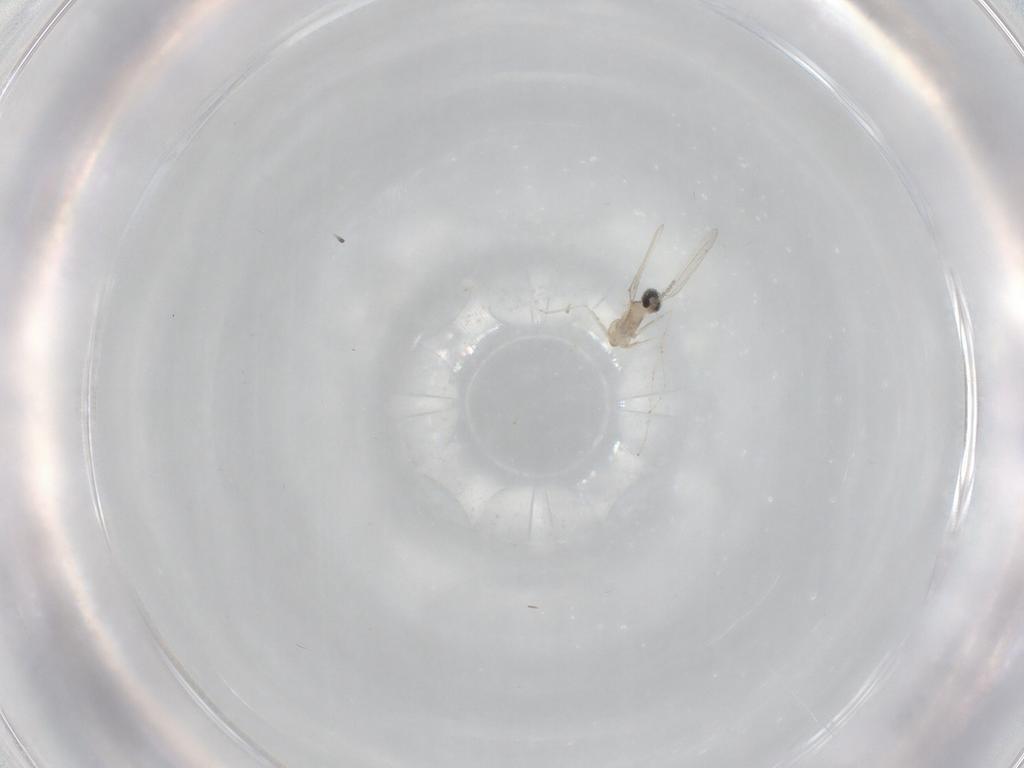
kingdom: Animalia
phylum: Arthropoda
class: Insecta
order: Diptera
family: Cecidomyiidae
